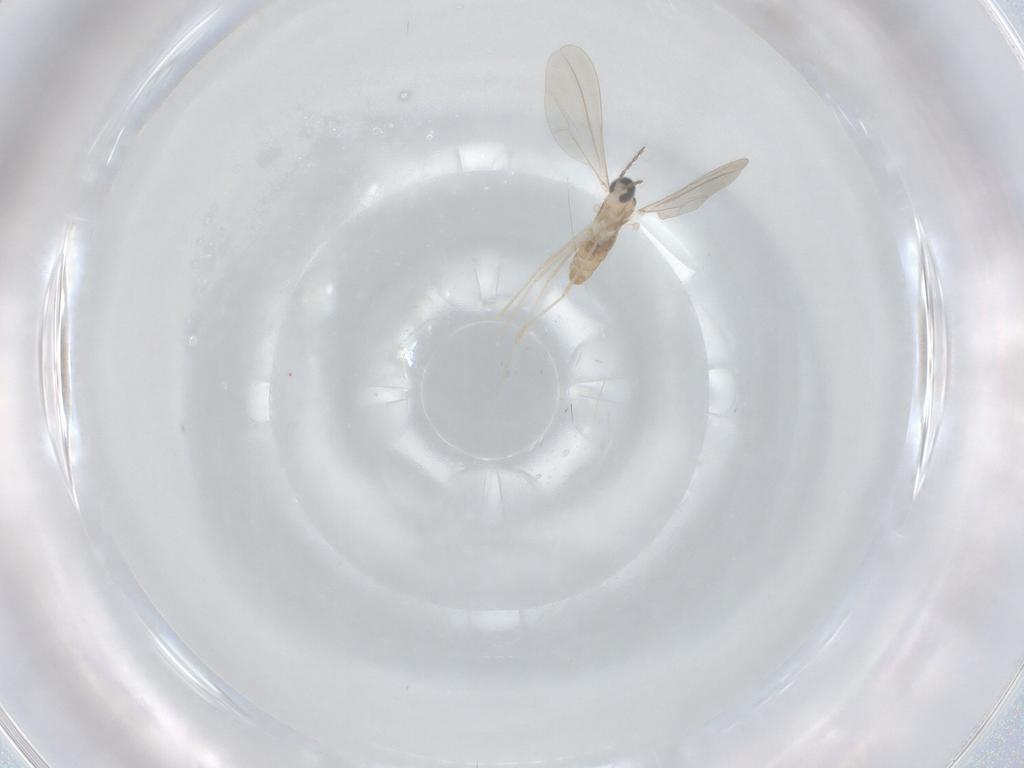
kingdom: Animalia
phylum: Arthropoda
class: Insecta
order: Diptera
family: Cecidomyiidae
